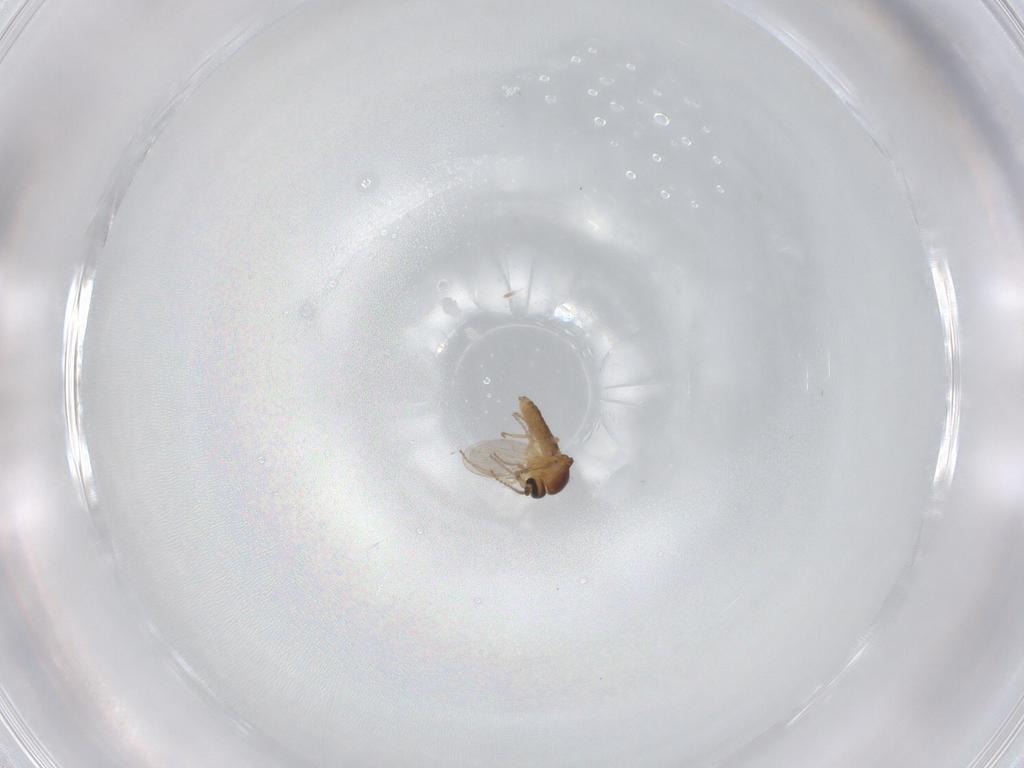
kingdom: Animalia
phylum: Arthropoda
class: Insecta
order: Diptera
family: Ceratopogonidae
